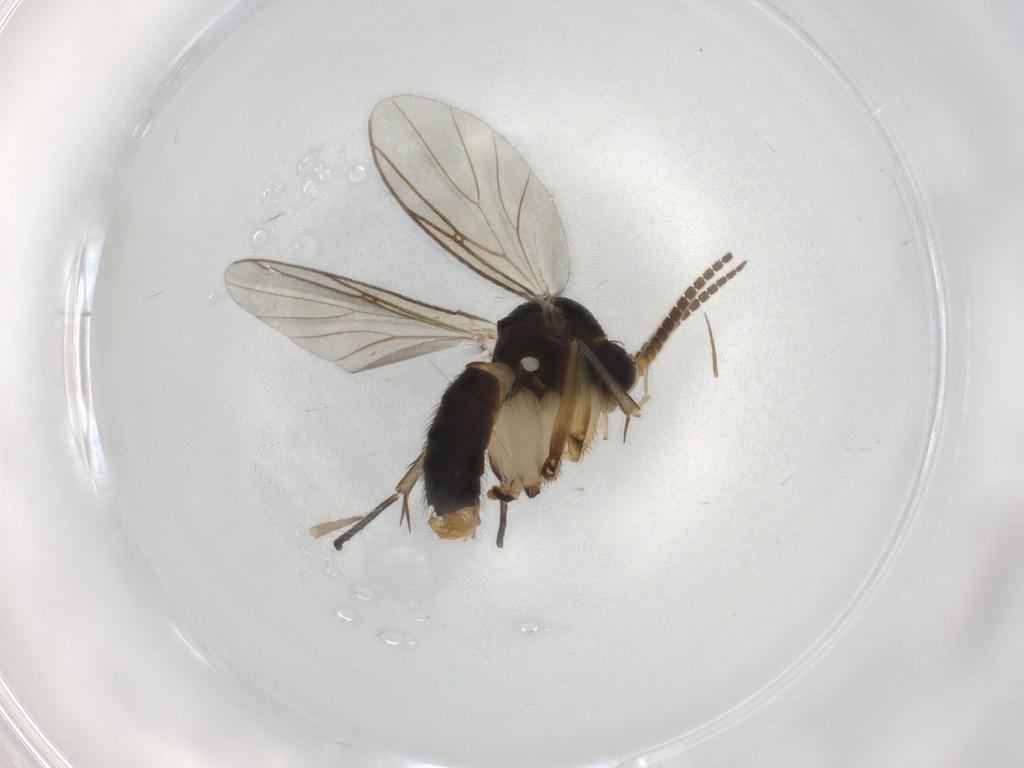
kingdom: Animalia
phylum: Arthropoda
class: Insecta
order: Diptera
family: Mycetophilidae
